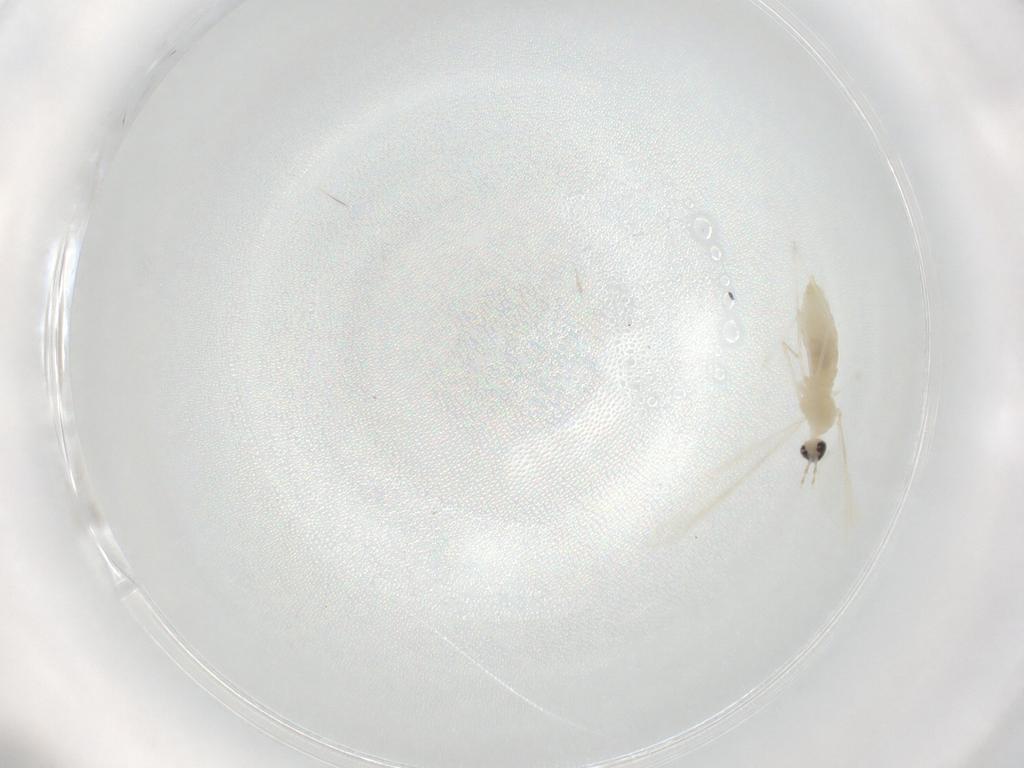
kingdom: Animalia
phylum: Arthropoda
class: Insecta
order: Diptera
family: Cecidomyiidae
